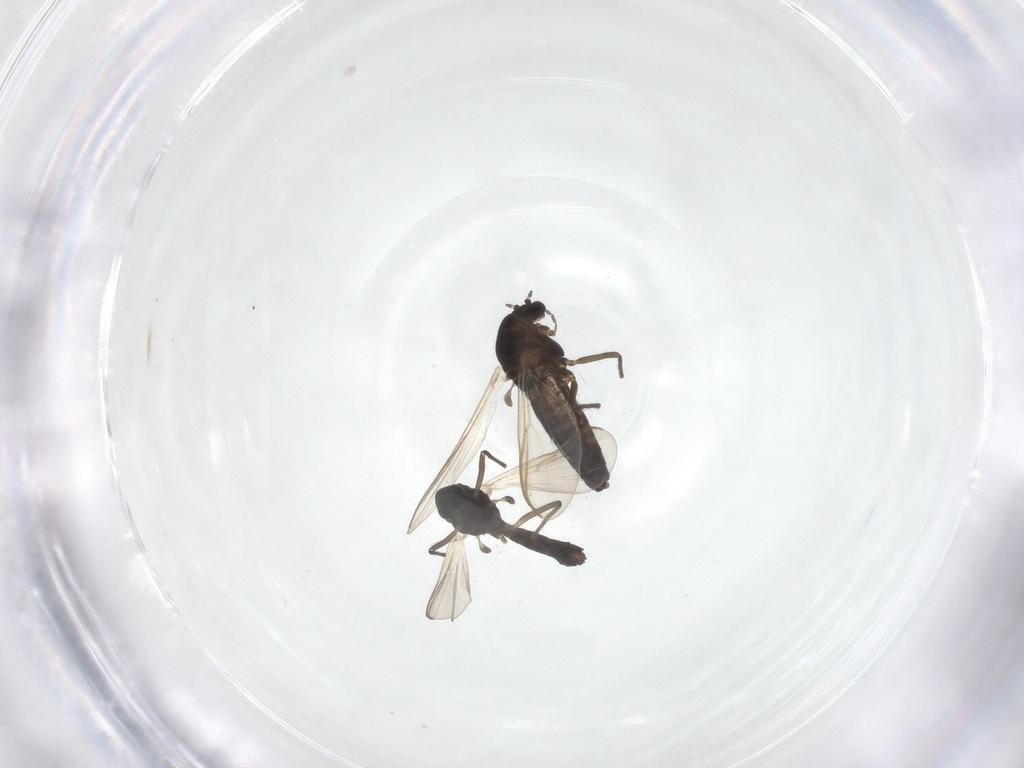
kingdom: Animalia
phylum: Arthropoda
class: Insecta
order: Diptera
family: Chironomidae
